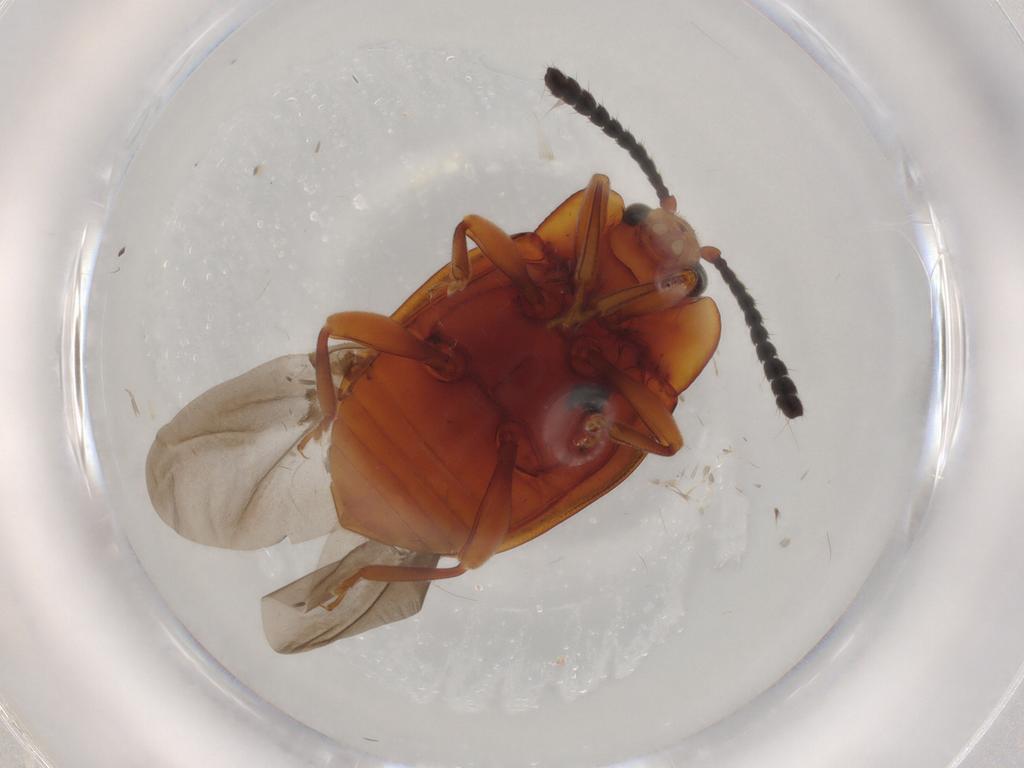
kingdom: Animalia
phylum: Arthropoda
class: Insecta
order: Coleoptera
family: Endomychidae
